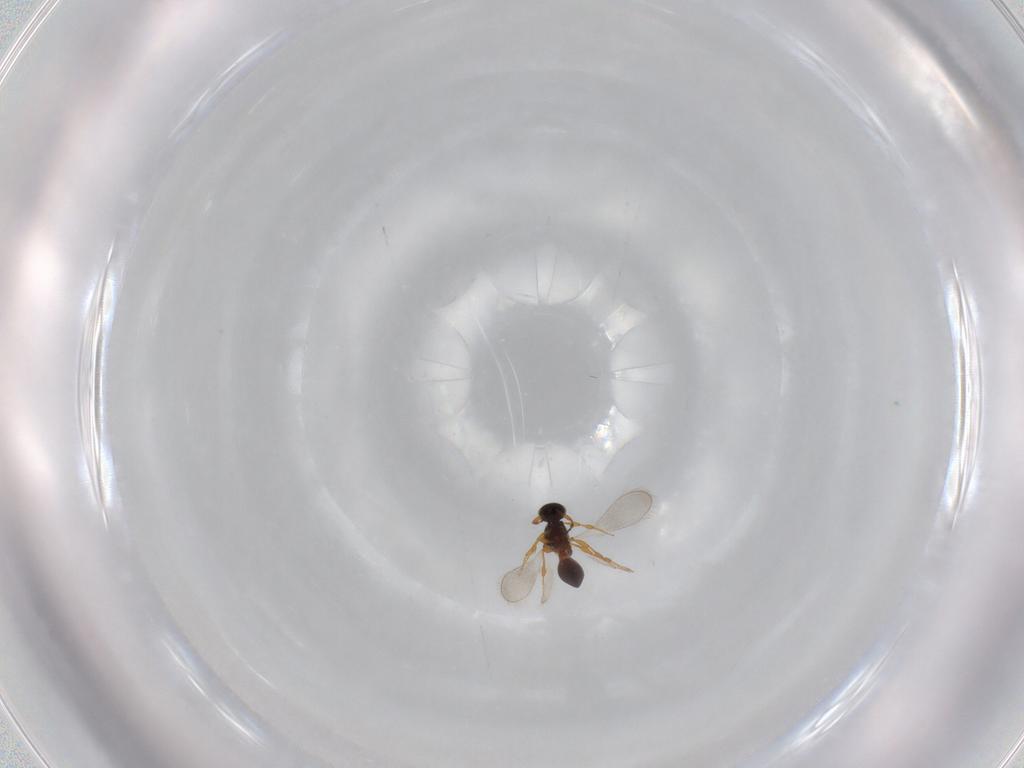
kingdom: Animalia
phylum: Arthropoda
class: Insecta
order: Hymenoptera
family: Platygastridae
